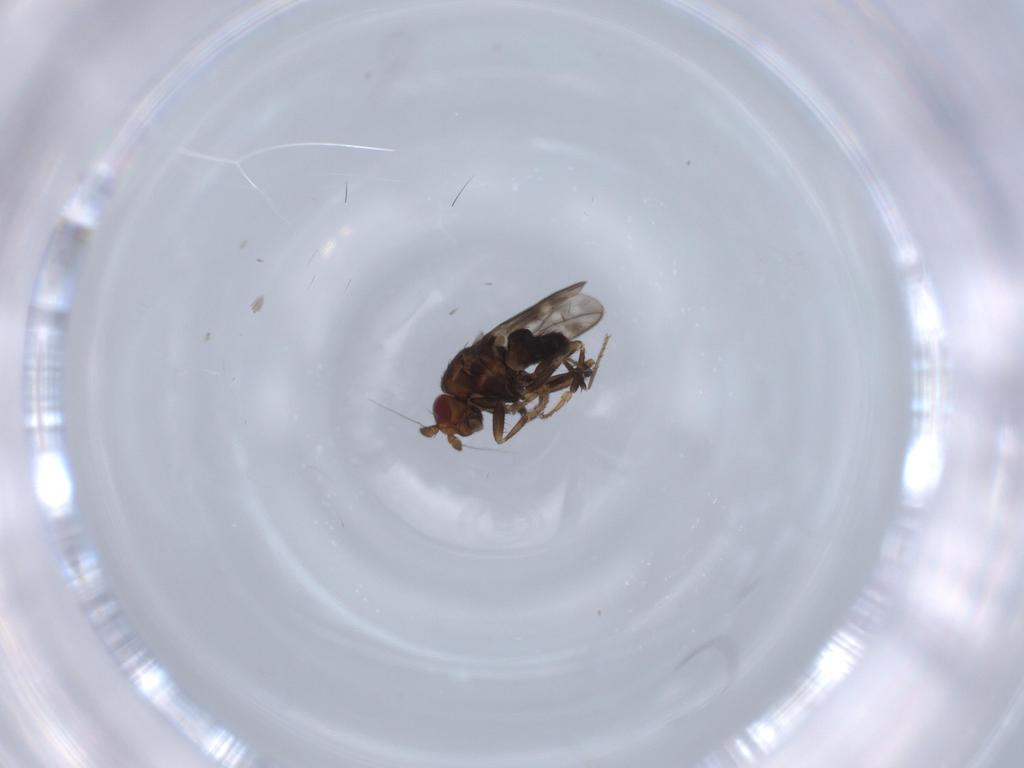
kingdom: Animalia
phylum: Arthropoda
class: Insecta
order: Diptera
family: Sphaeroceridae
